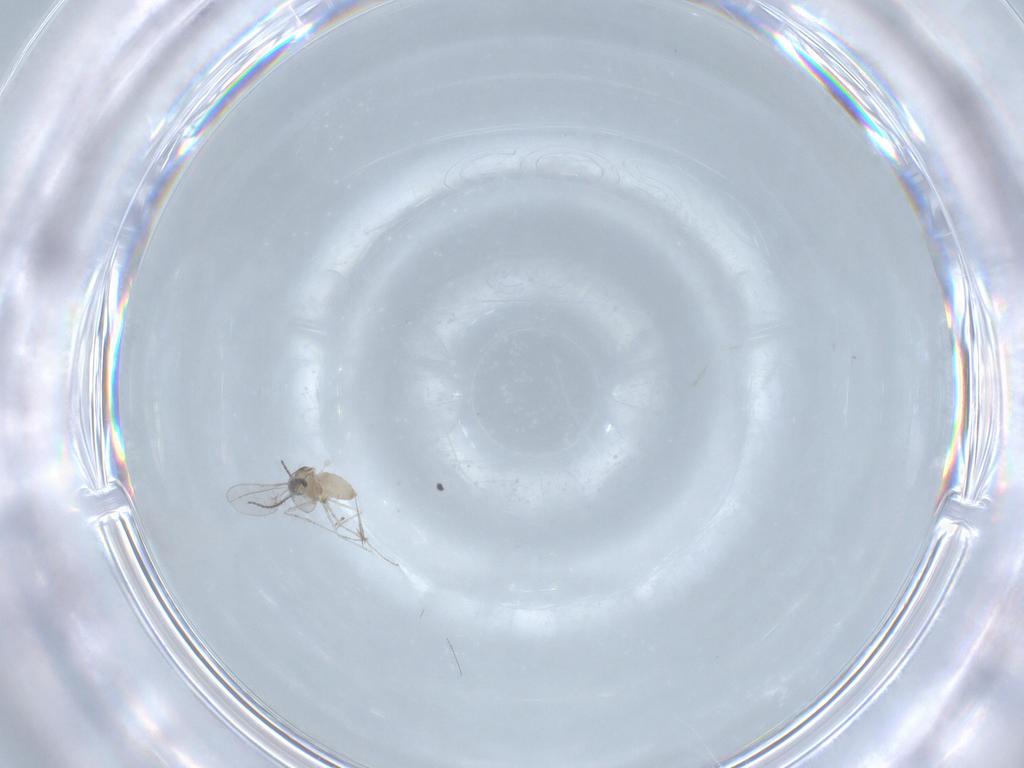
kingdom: Animalia
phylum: Arthropoda
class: Insecta
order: Diptera
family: Cecidomyiidae
